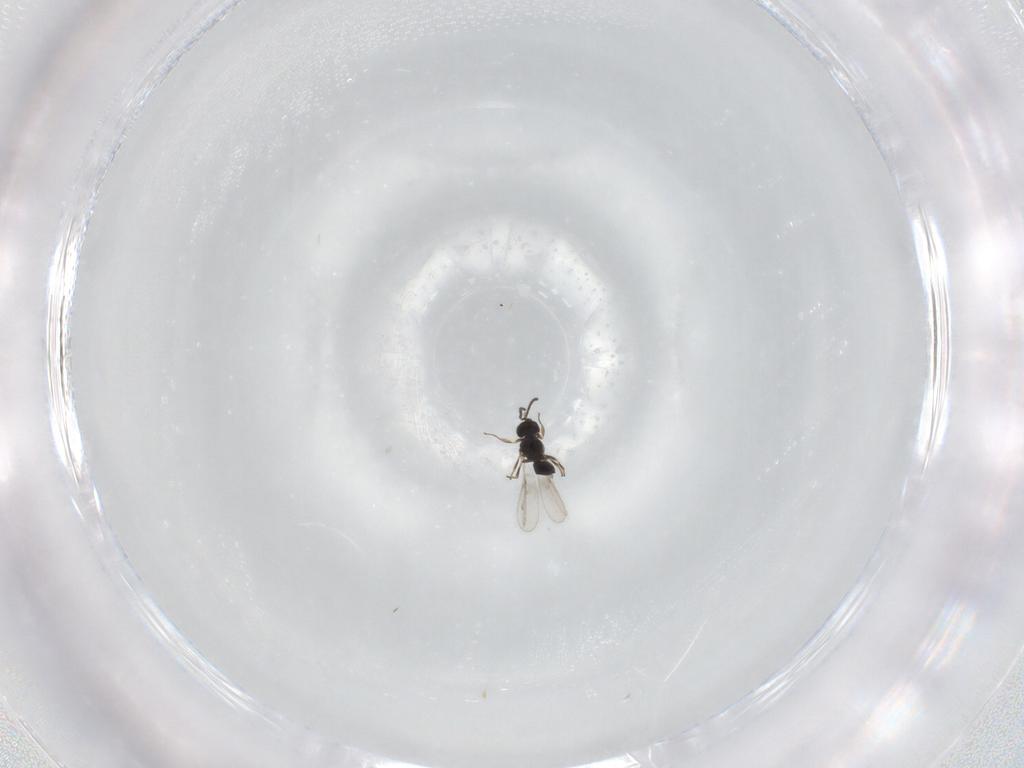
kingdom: Animalia
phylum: Arthropoda
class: Insecta
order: Hymenoptera
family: Scelionidae
